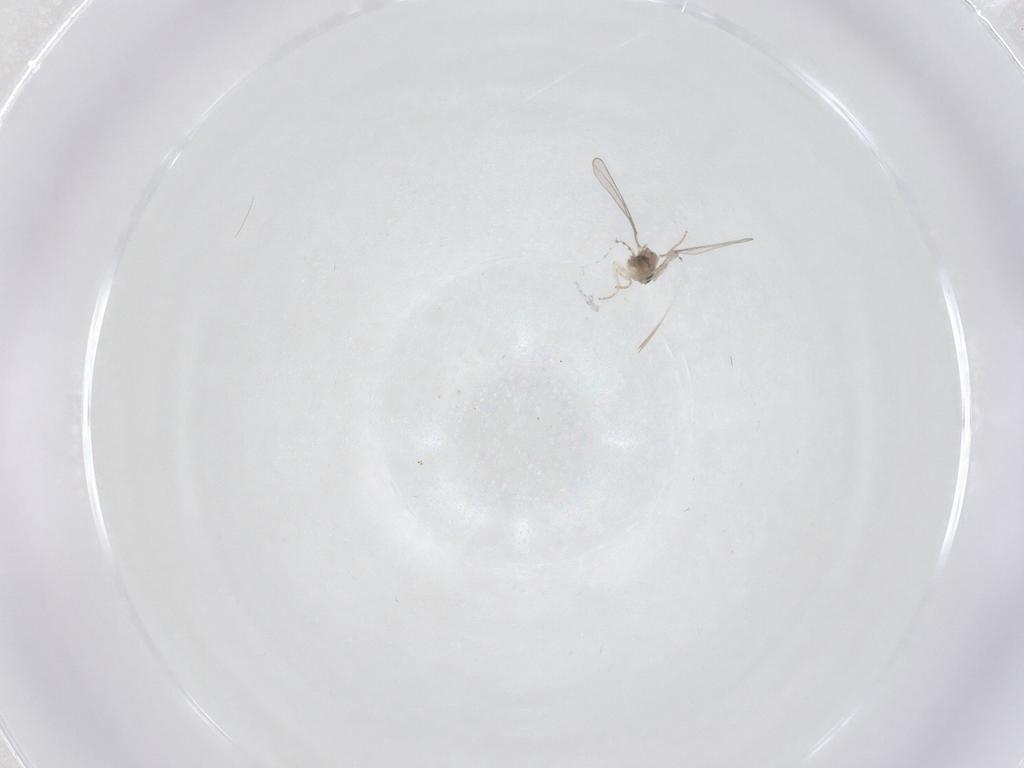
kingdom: Animalia
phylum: Arthropoda
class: Insecta
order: Diptera
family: Cecidomyiidae
